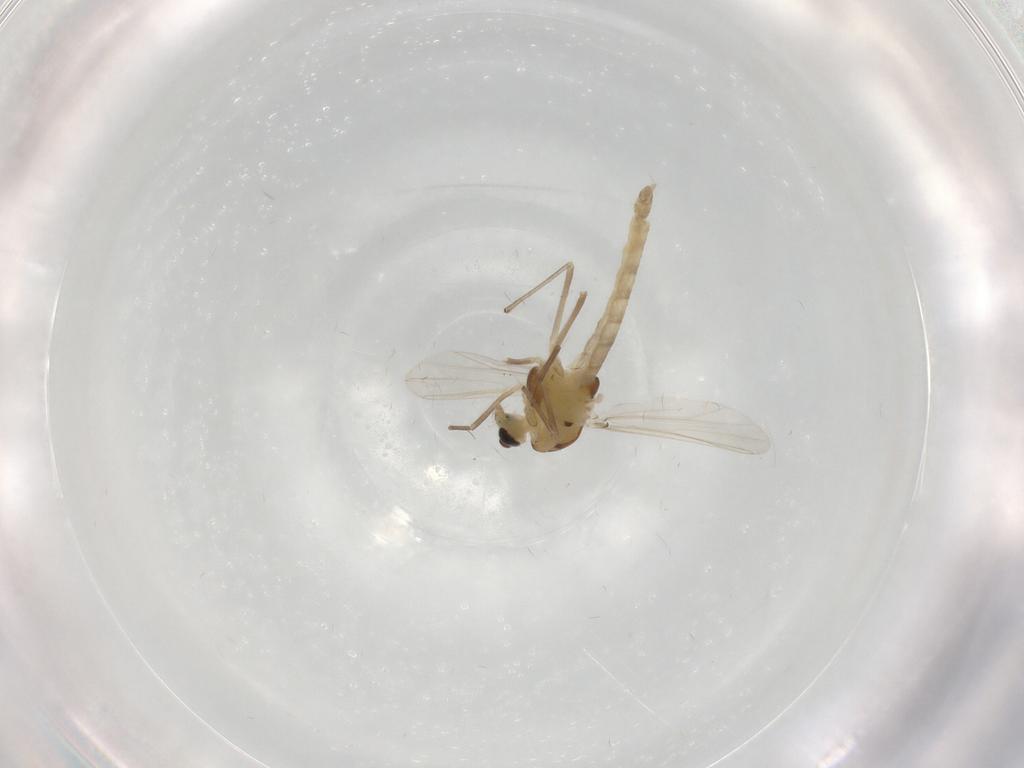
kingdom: Animalia
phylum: Arthropoda
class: Insecta
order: Diptera
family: Chironomidae
